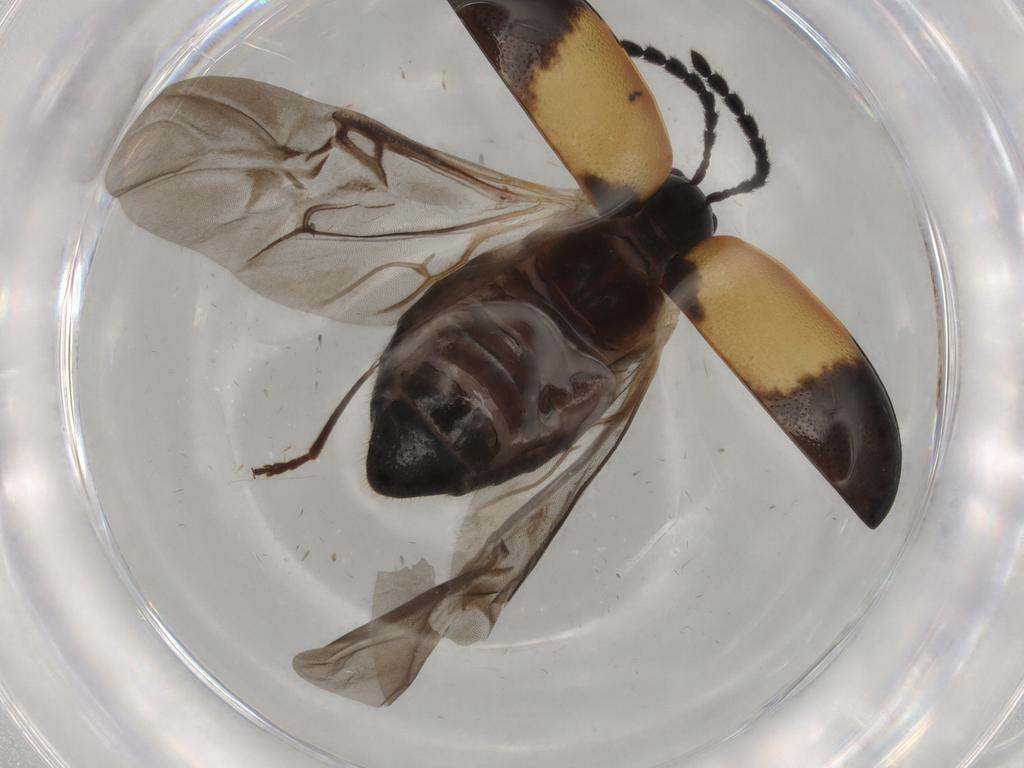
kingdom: Animalia
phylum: Arthropoda
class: Insecta
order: Coleoptera
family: Chrysomelidae
